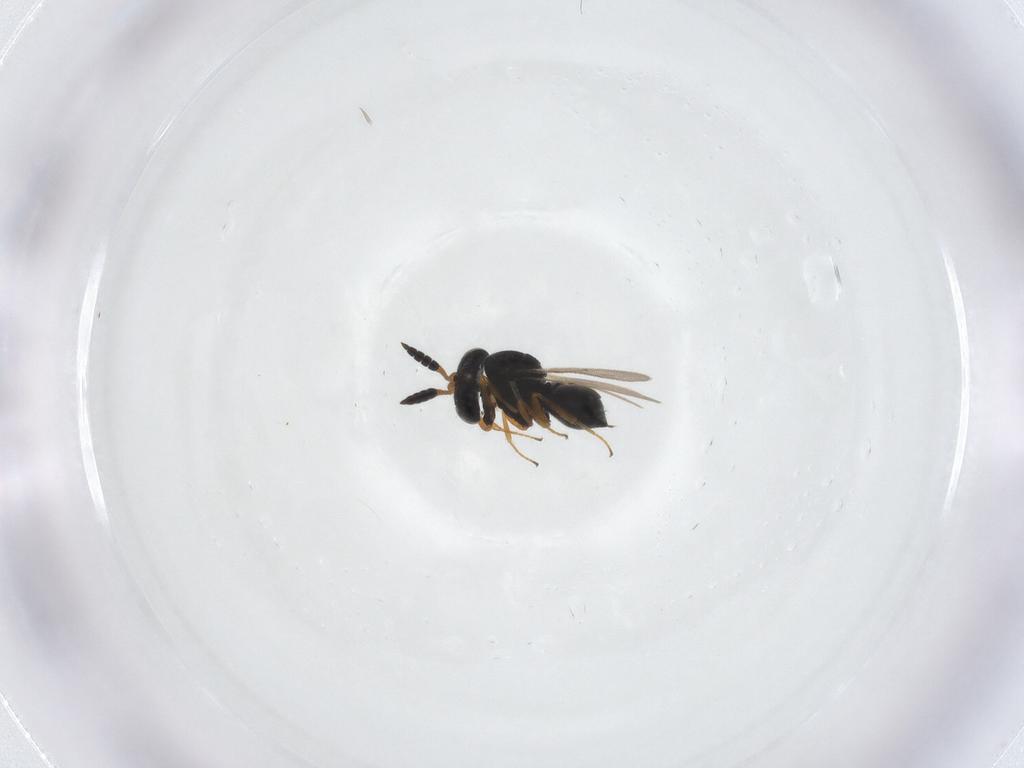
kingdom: Animalia
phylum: Arthropoda
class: Insecta
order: Hymenoptera
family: Scelionidae
